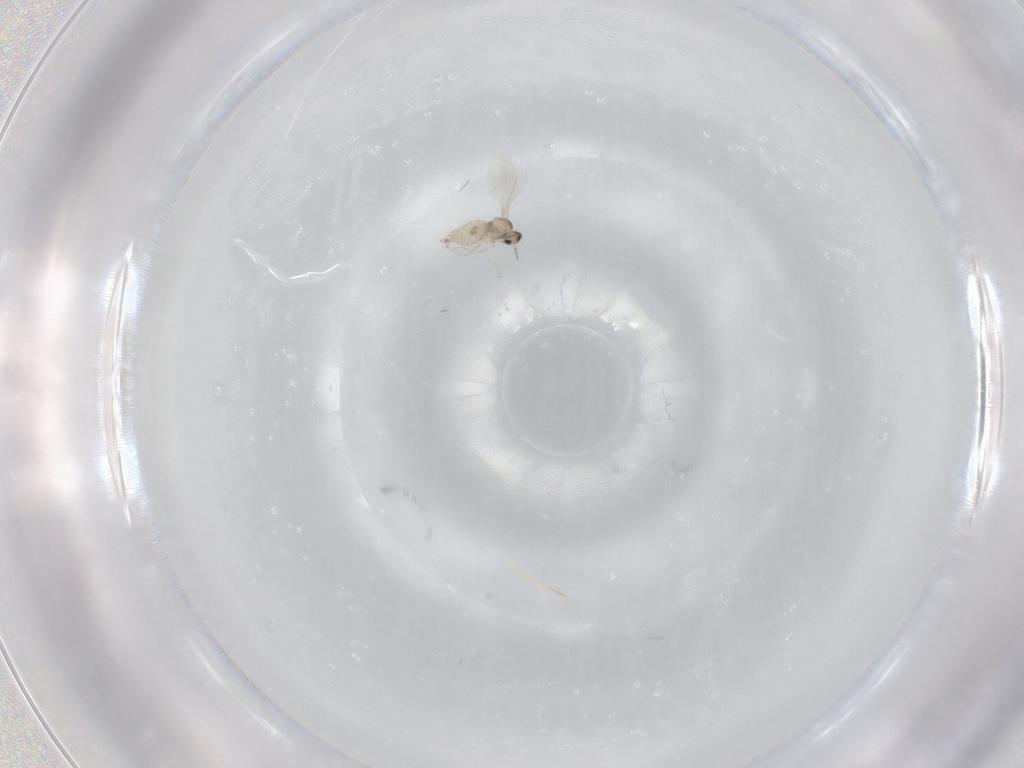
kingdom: Animalia
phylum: Arthropoda
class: Insecta
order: Diptera
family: Cecidomyiidae
